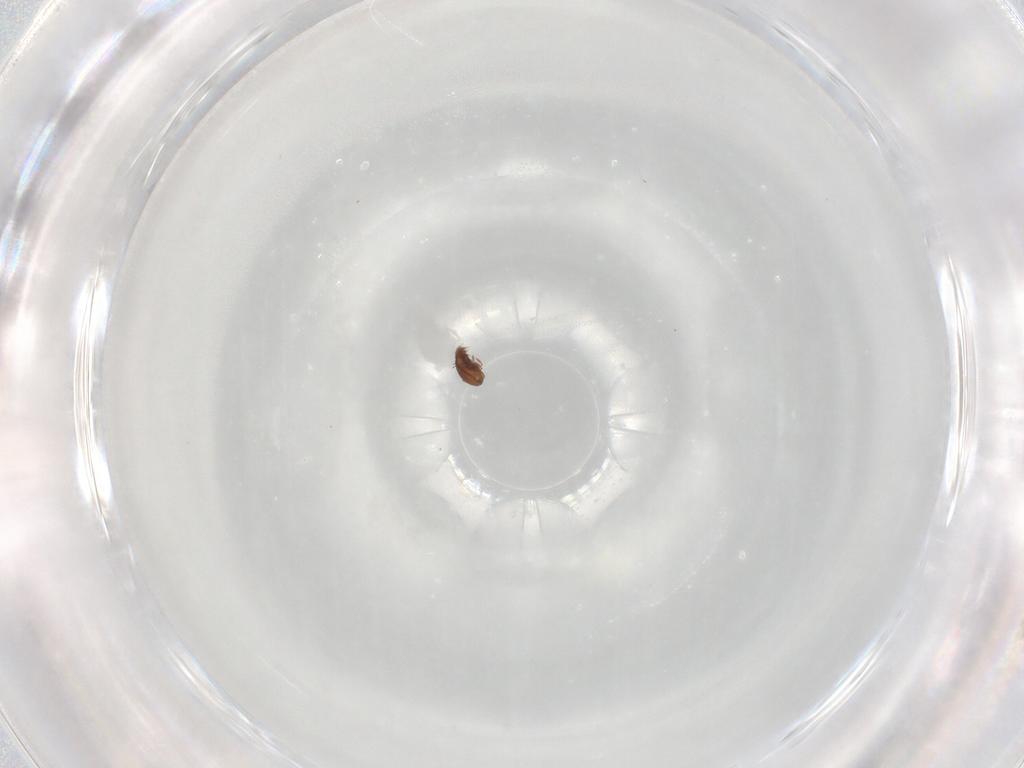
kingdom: Animalia
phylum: Arthropoda
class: Arachnida
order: Sarcoptiformes
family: Brachychthoniidae
